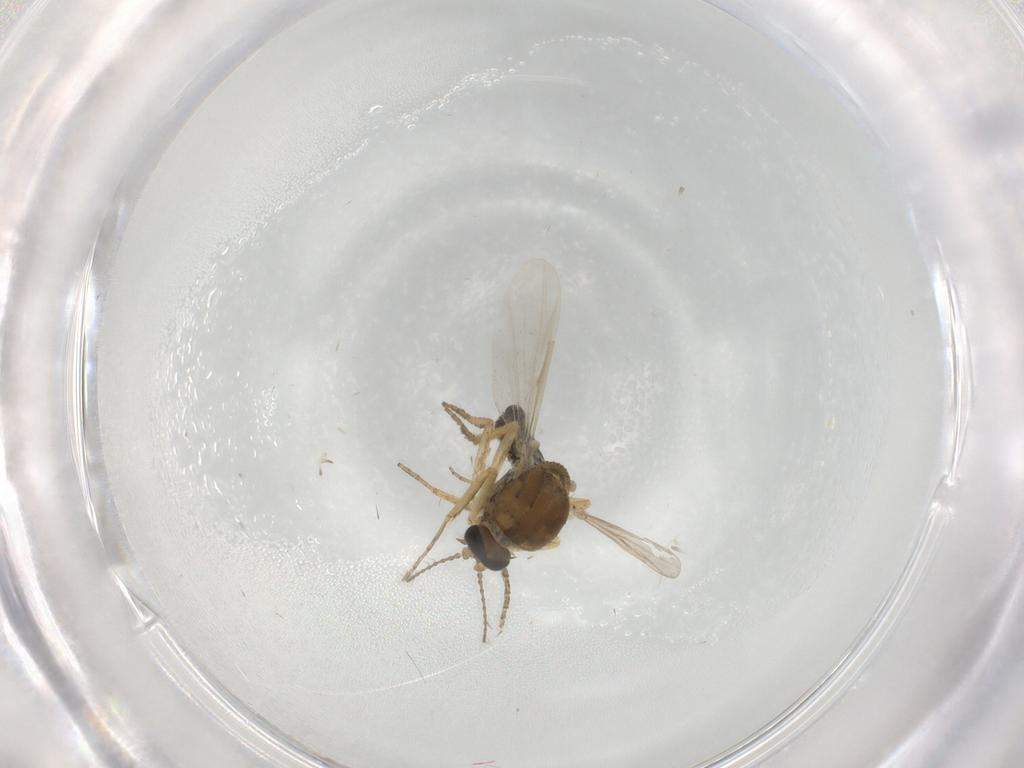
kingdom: Animalia
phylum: Arthropoda
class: Insecta
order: Diptera
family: Ceratopogonidae
